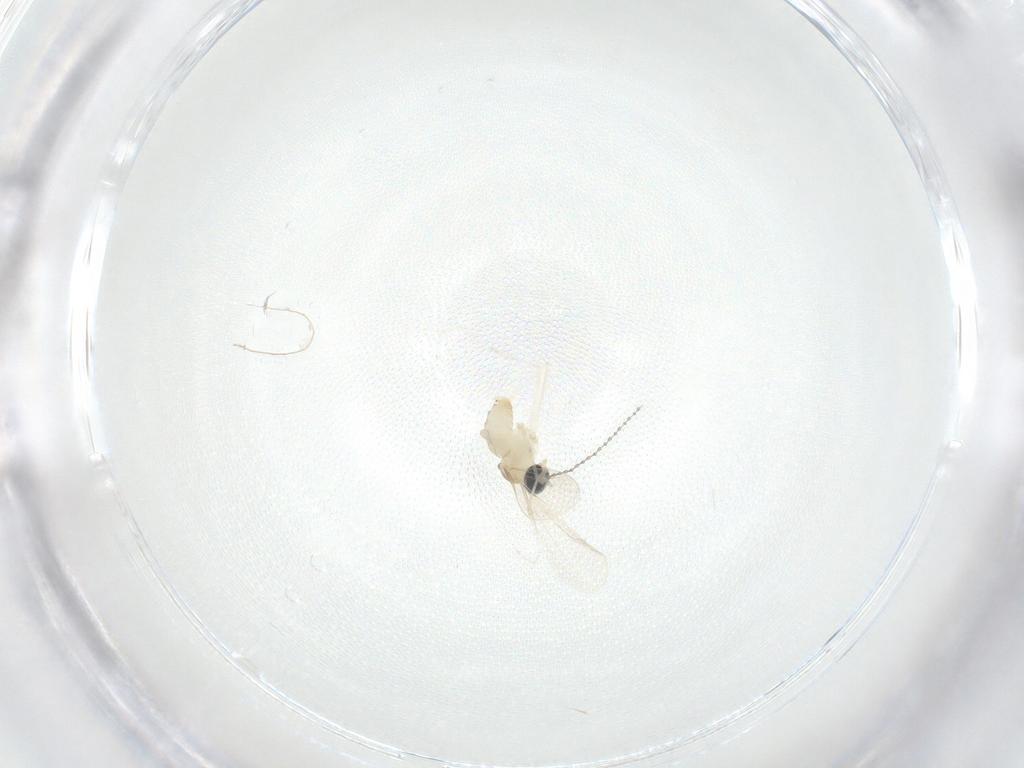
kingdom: Animalia
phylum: Arthropoda
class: Insecta
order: Diptera
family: Cecidomyiidae
